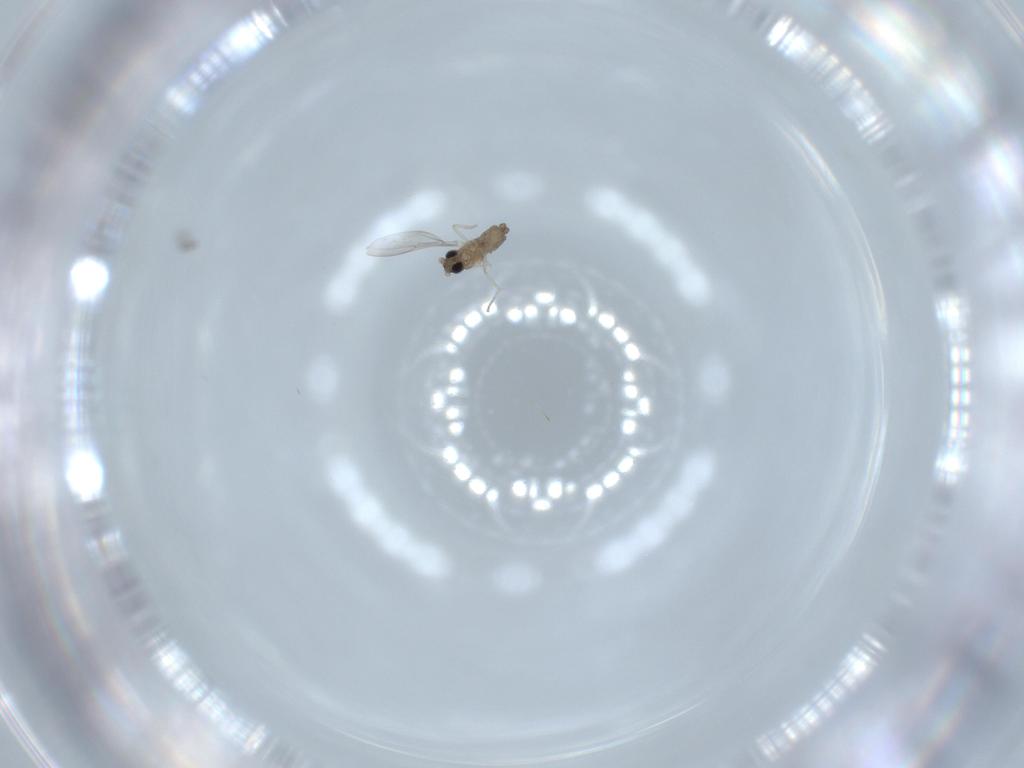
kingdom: Animalia
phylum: Arthropoda
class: Insecta
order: Diptera
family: Cecidomyiidae
